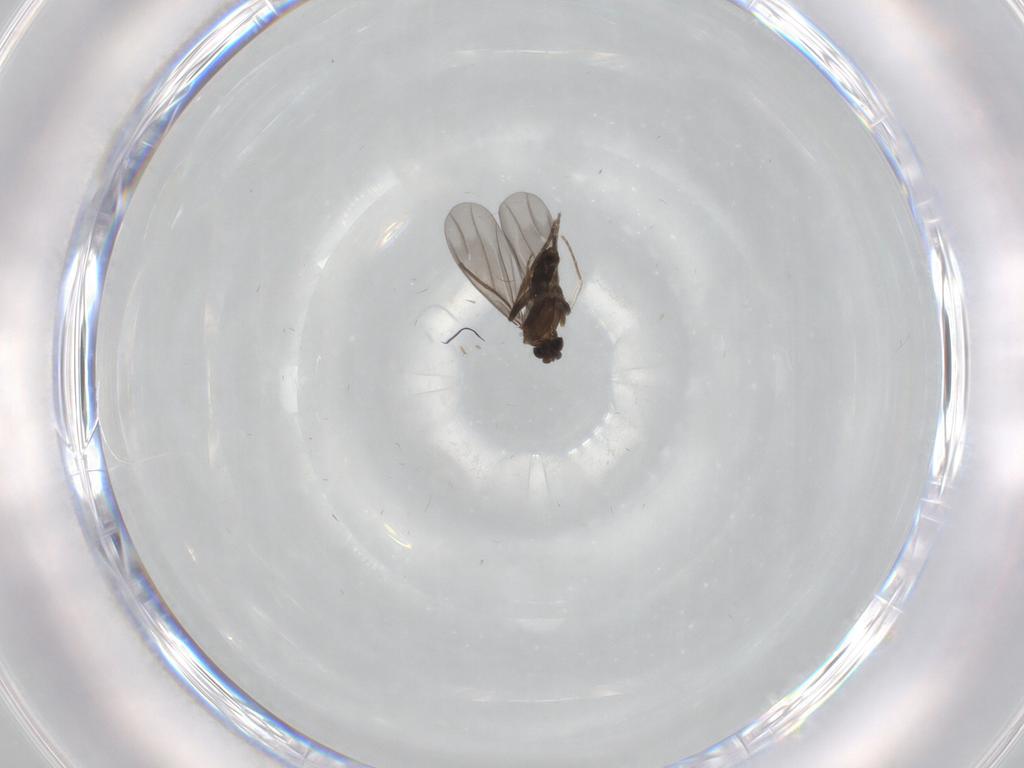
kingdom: Animalia
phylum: Arthropoda
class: Insecta
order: Diptera
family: Phoridae
